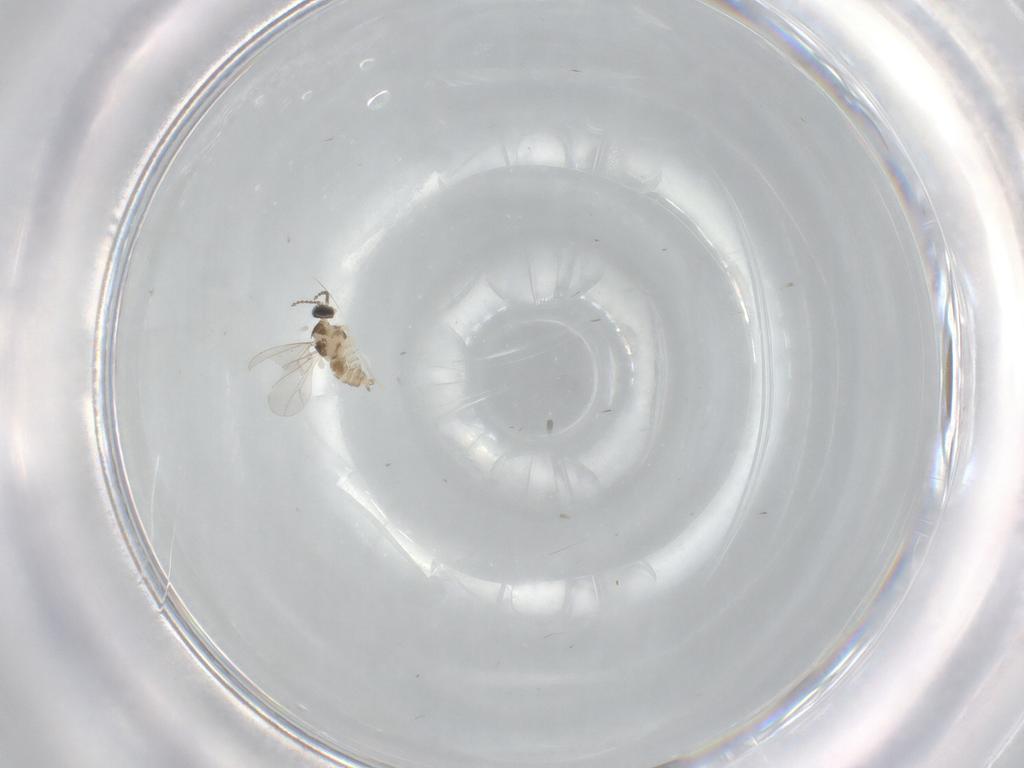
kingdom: Animalia
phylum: Arthropoda
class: Insecta
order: Diptera
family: Cecidomyiidae
